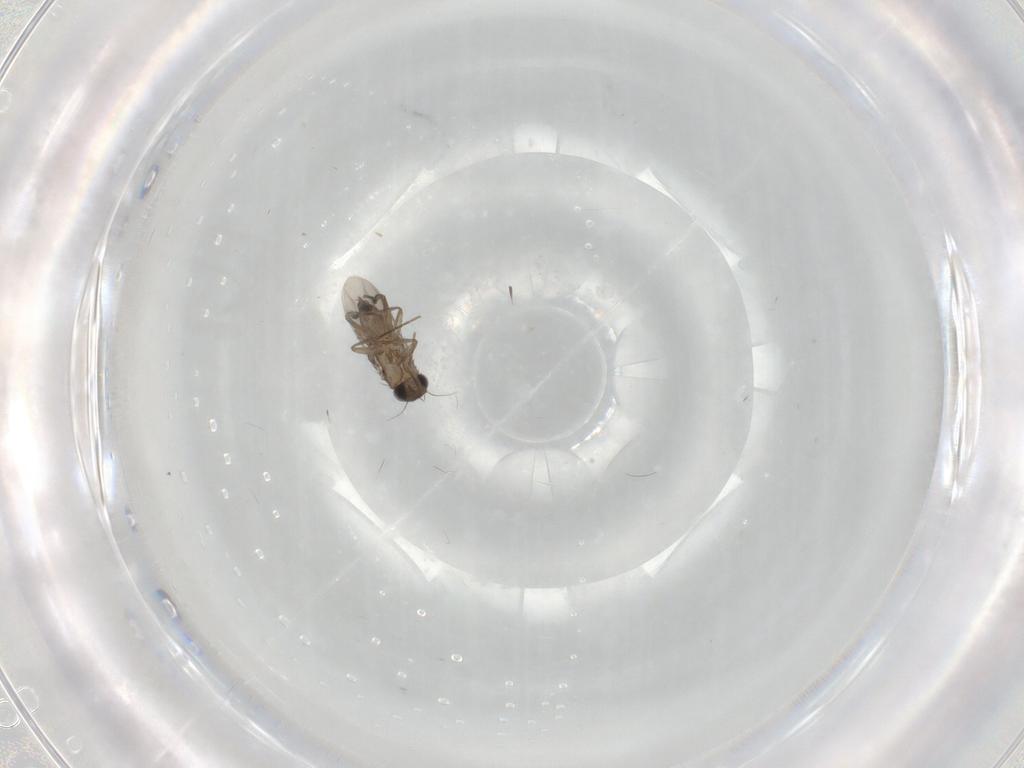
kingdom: Animalia
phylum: Arthropoda
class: Insecta
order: Diptera
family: Phoridae
